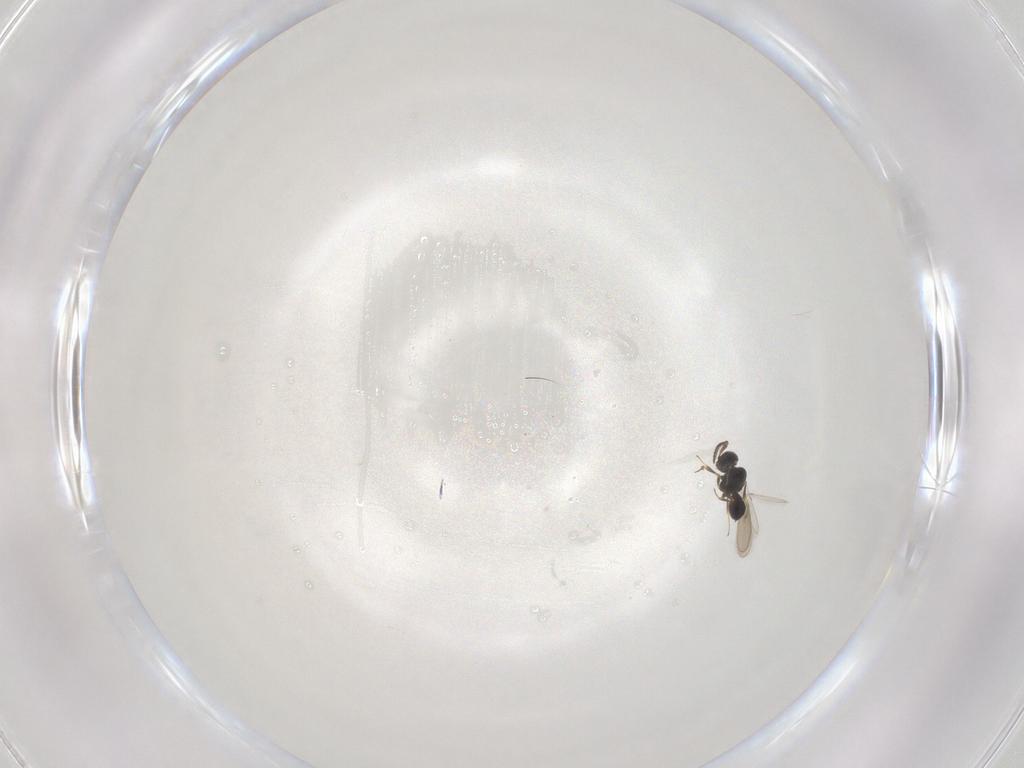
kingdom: Animalia
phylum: Arthropoda
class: Insecta
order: Hymenoptera
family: Scelionidae
